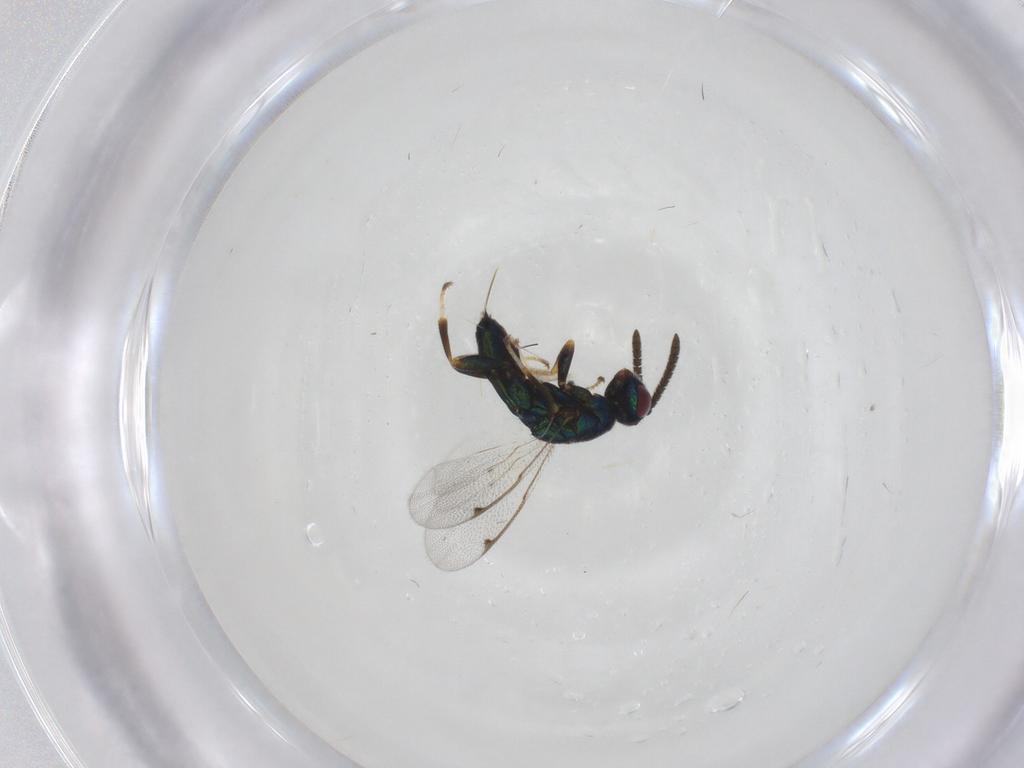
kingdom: Animalia
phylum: Arthropoda
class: Insecta
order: Hymenoptera
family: Torymidae
